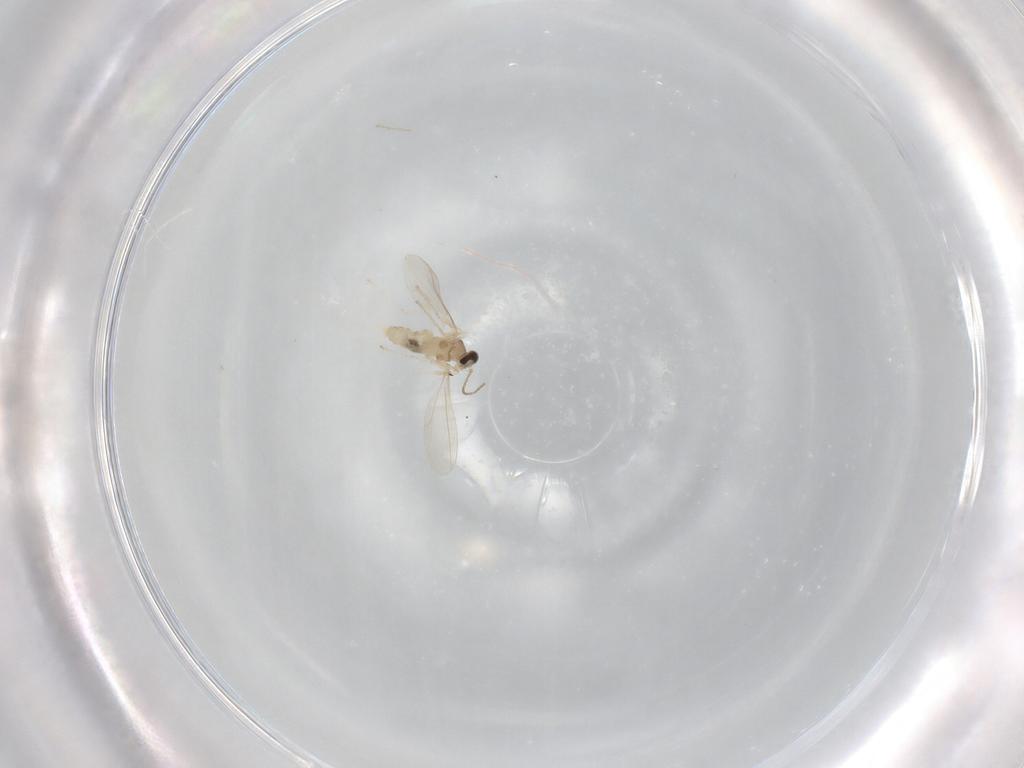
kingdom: Animalia
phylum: Arthropoda
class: Insecta
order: Diptera
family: Cecidomyiidae
